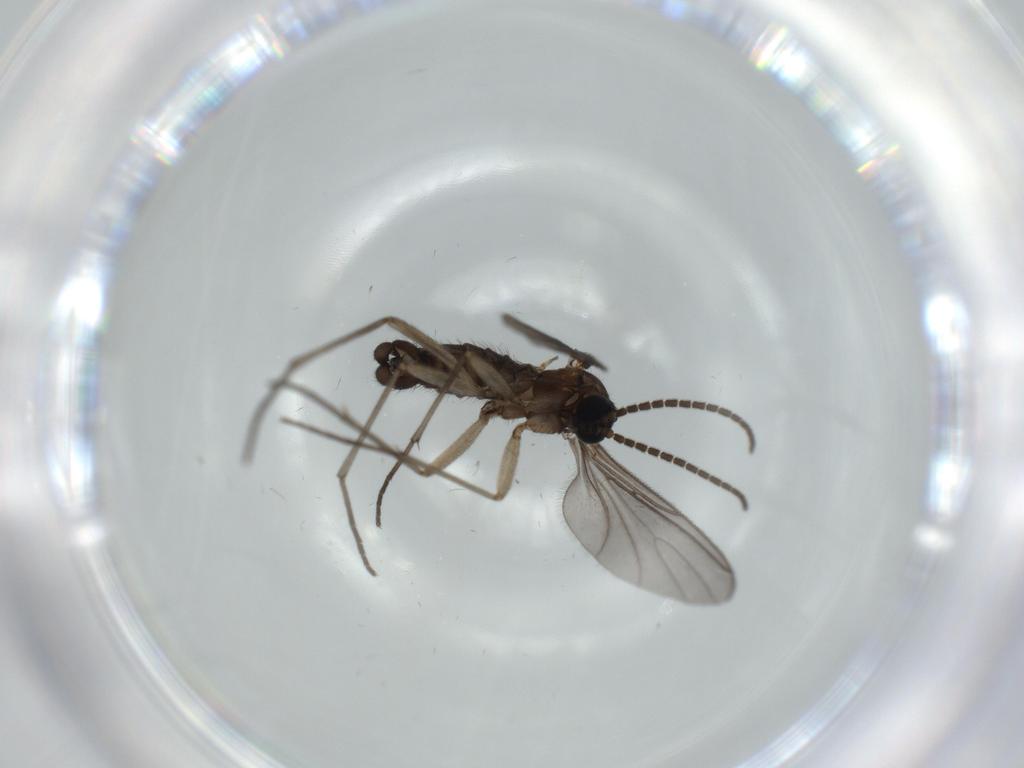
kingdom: Animalia
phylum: Arthropoda
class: Insecta
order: Diptera
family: Sciaridae
